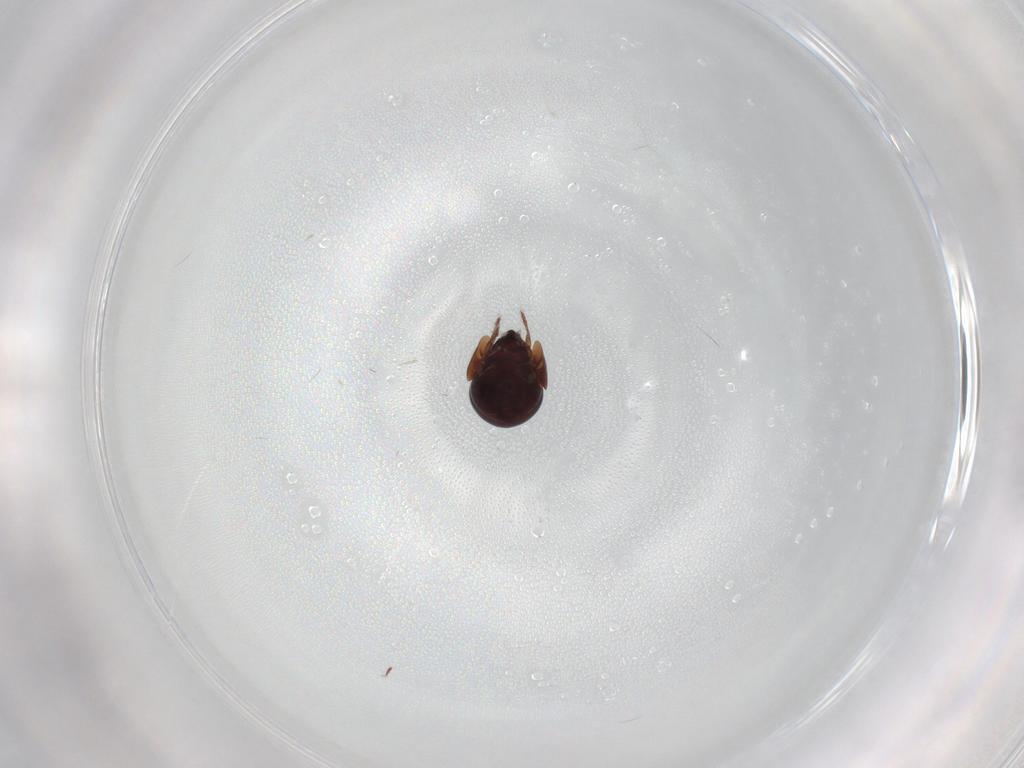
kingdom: Animalia
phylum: Arthropoda
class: Arachnida
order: Sarcoptiformes
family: Galumnidae
